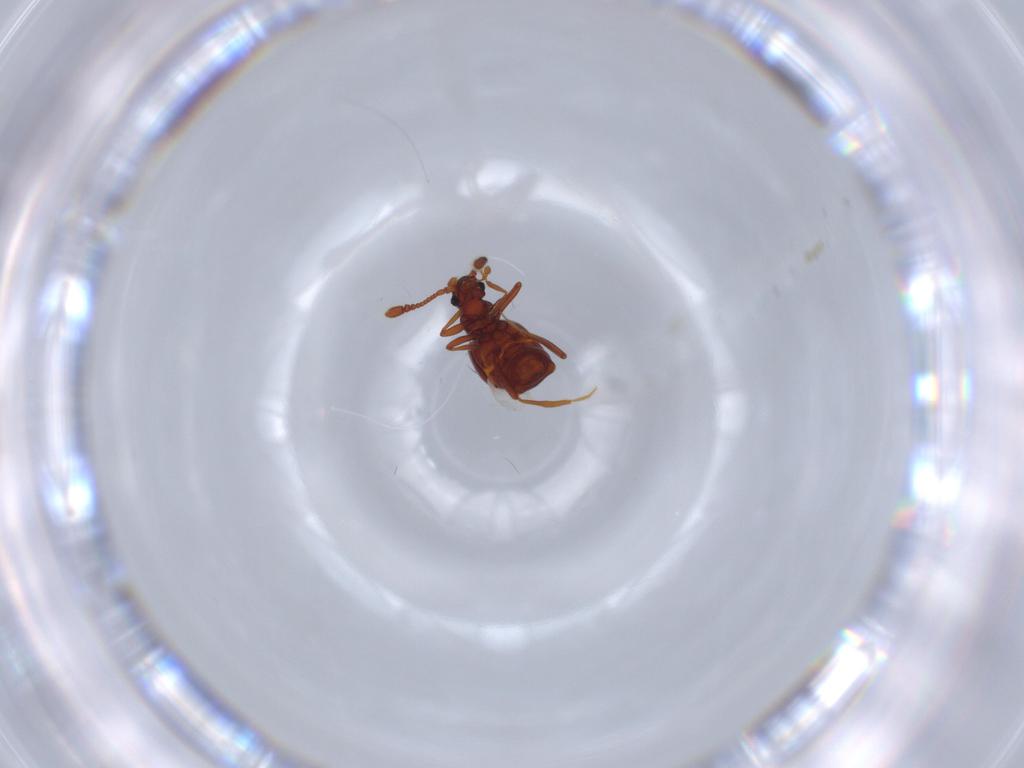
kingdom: Animalia
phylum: Arthropoda
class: Insecta
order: Coleoptera
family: Staphylinidae
